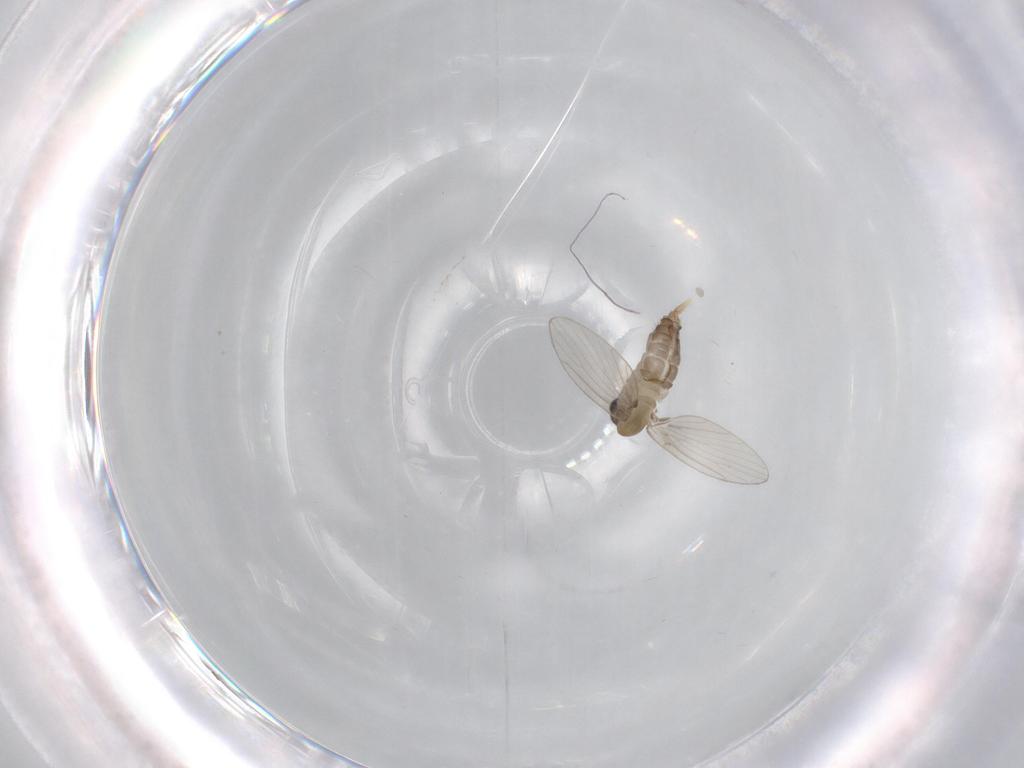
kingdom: Animalia
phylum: Arthropoda
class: Insecta
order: Diptera
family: Psychodidae
